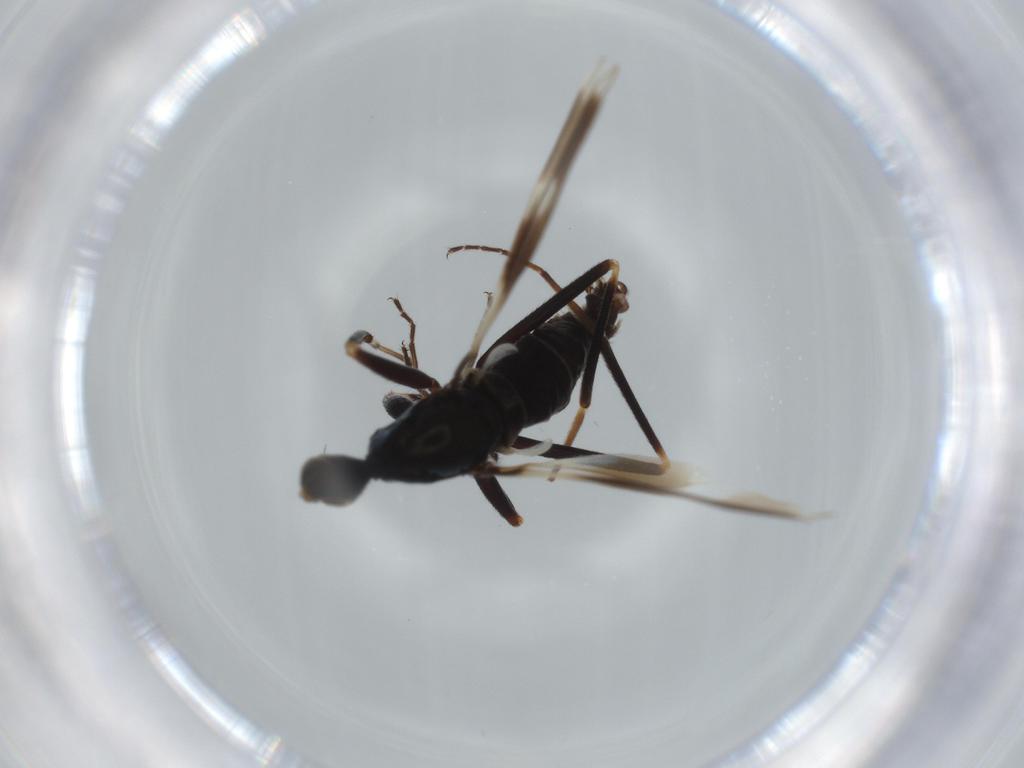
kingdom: Animalia
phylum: Arthropoda
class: Insecta
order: Diptera
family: Hybotidae
